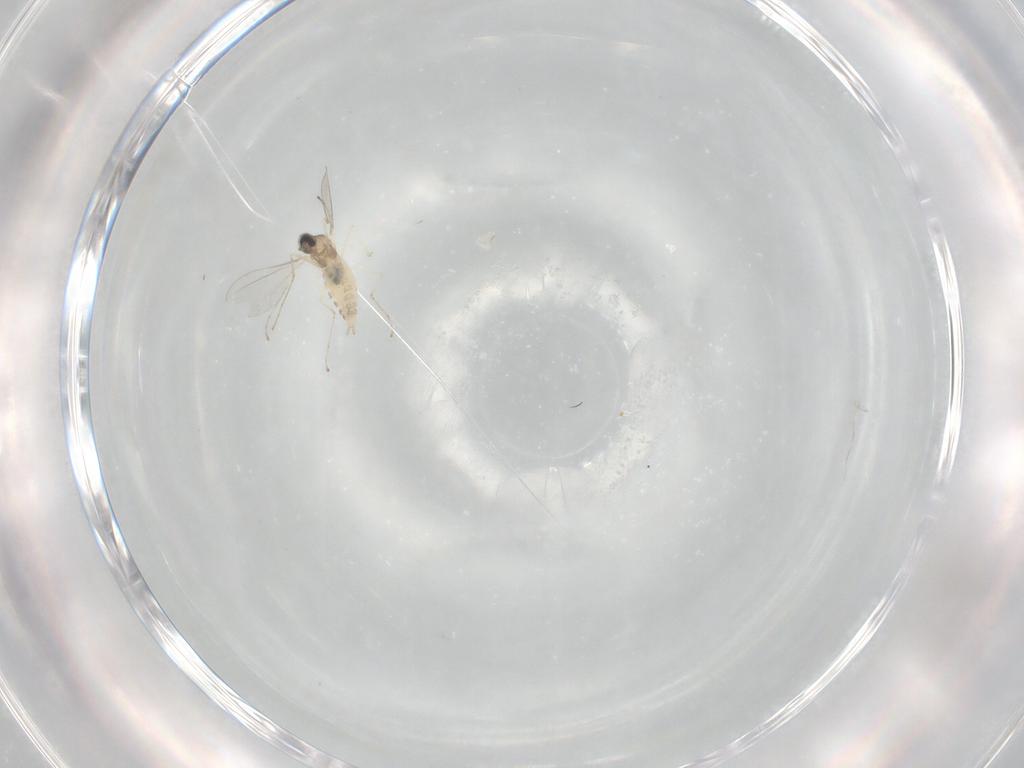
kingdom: Animalia
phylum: Arthropoda
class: Insecta
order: Diptera
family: Cecidomyiidae
